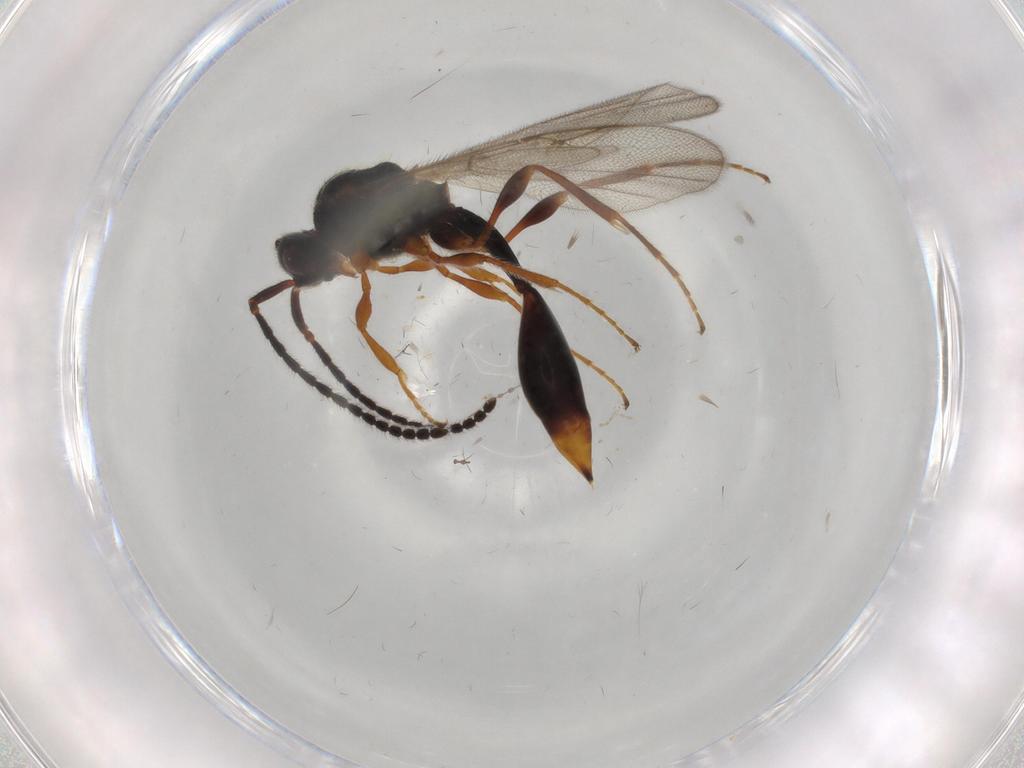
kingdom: Animalia
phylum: Arthropoda
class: Insecta
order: Hymenoptera
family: Diapriidae
